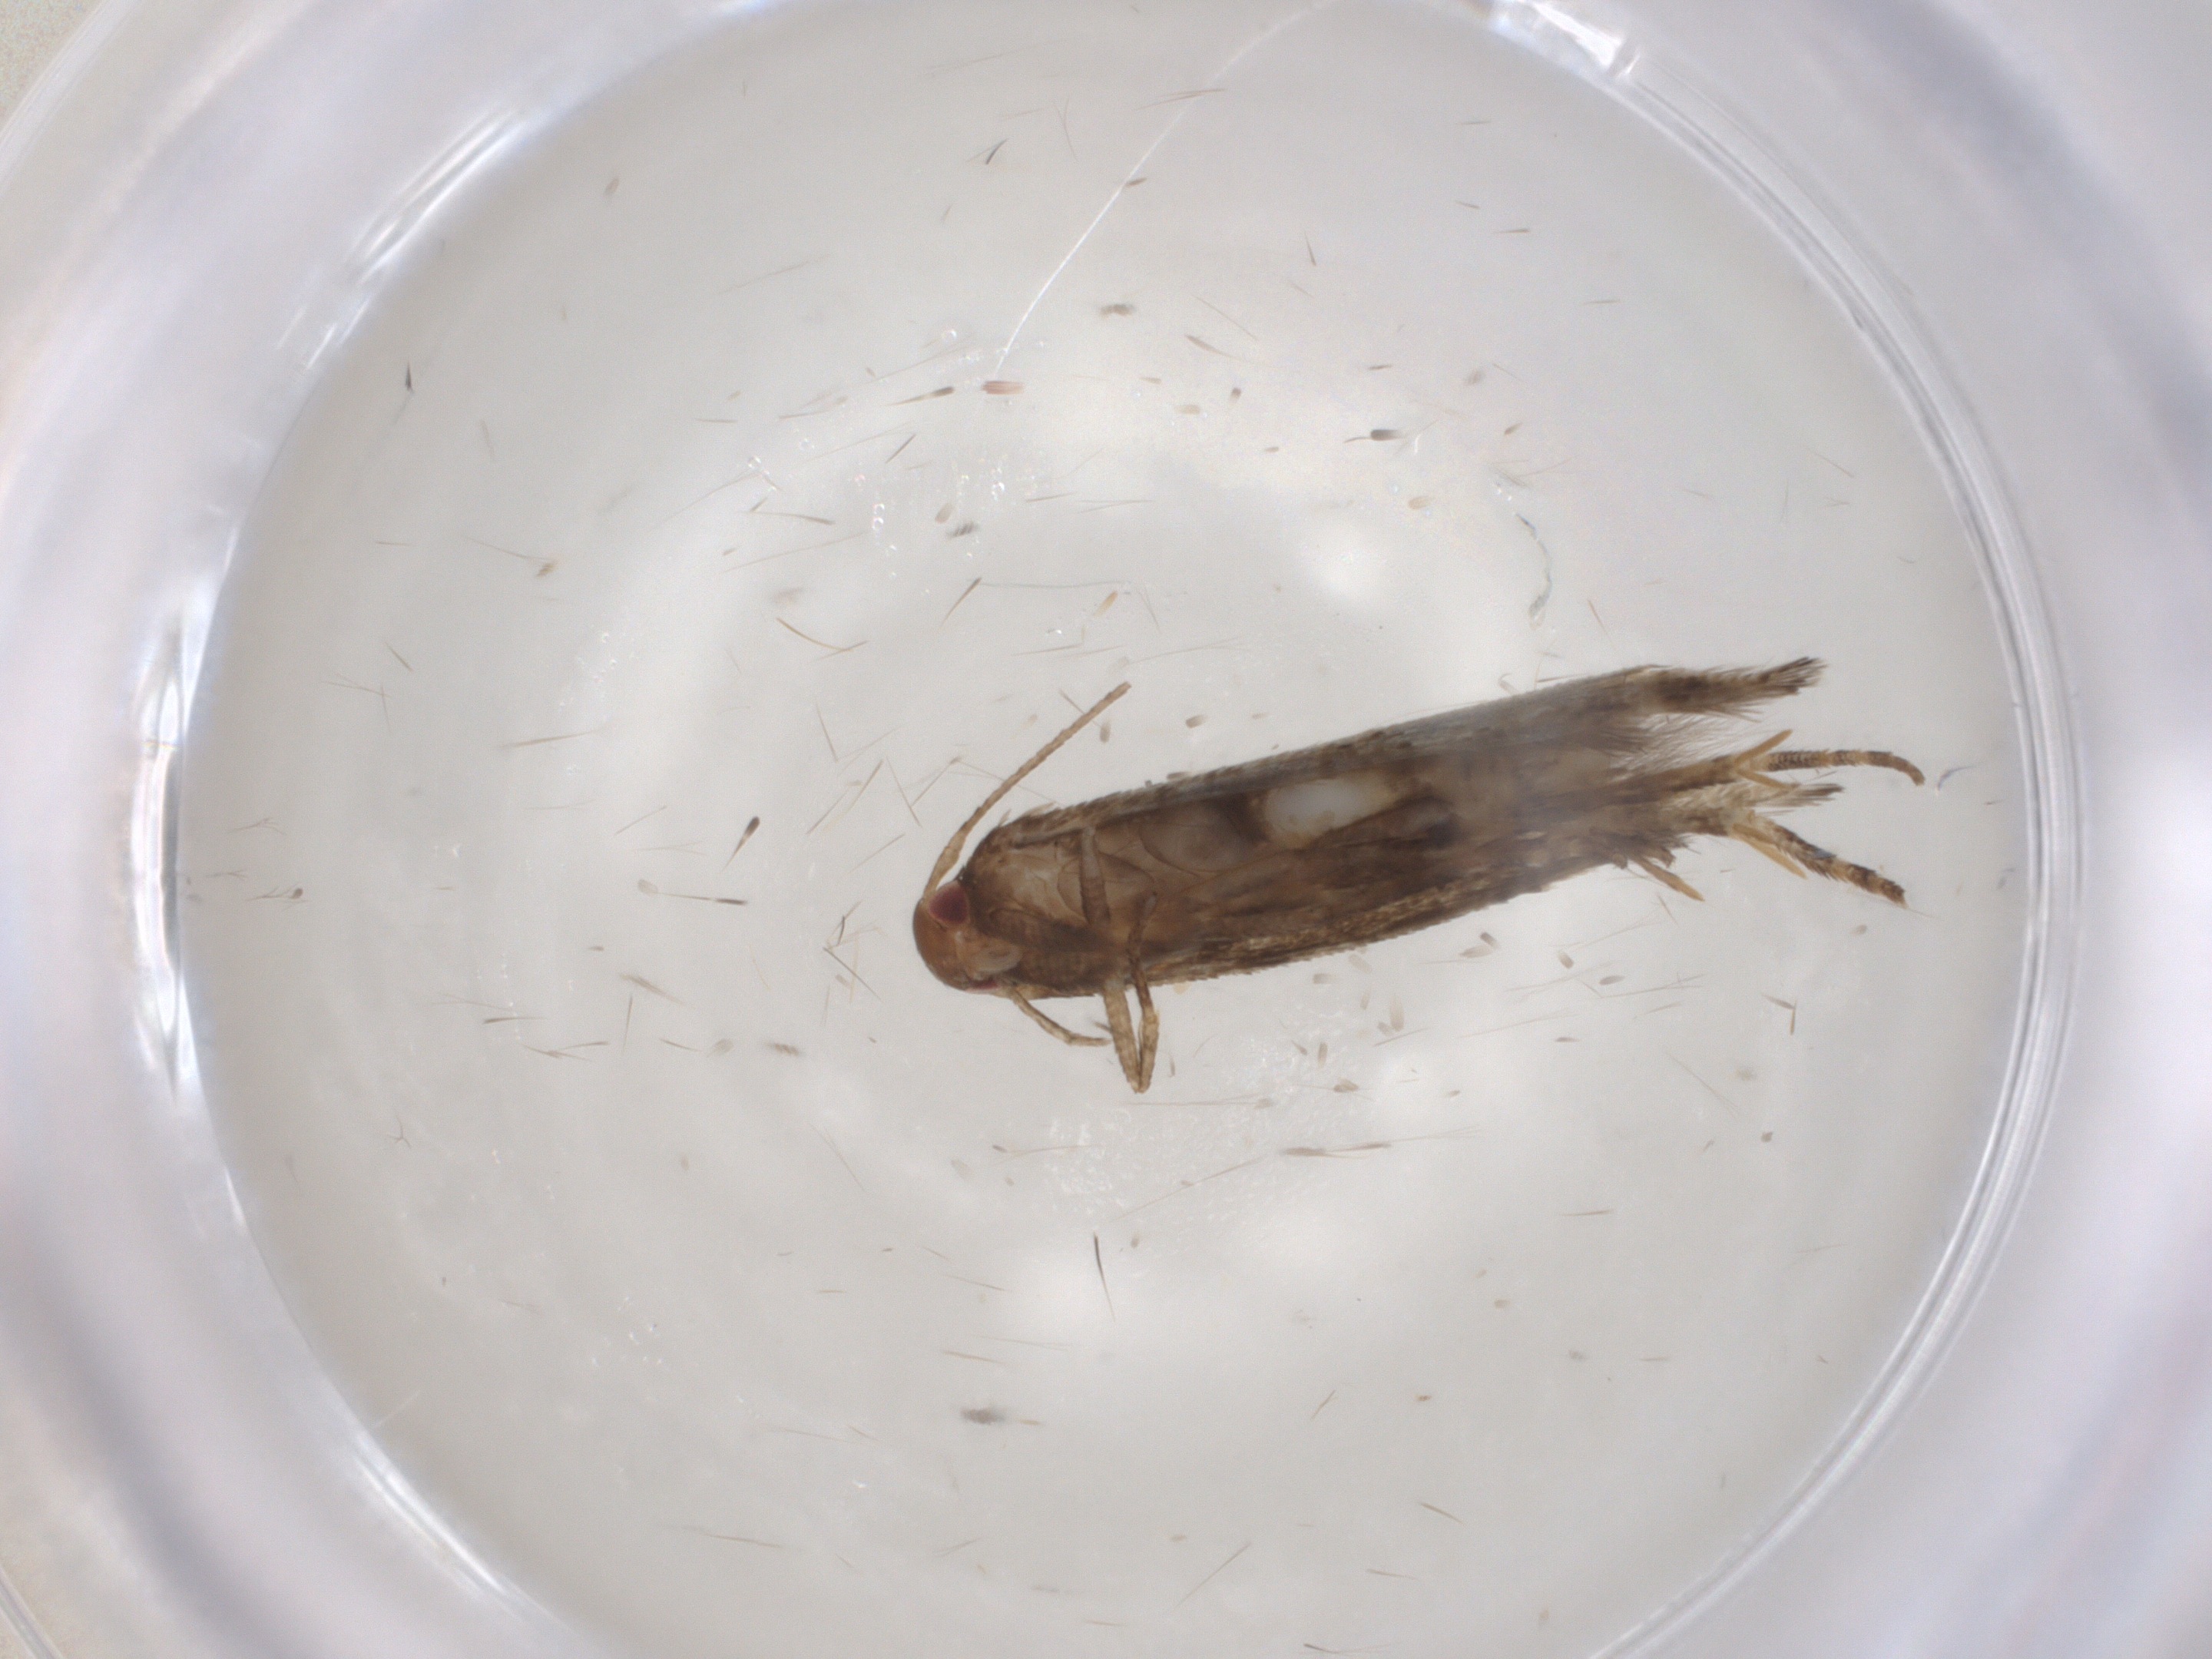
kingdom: Animalia
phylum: Arthropoda
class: Insecta
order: Lepidoptera
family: Momphidae
